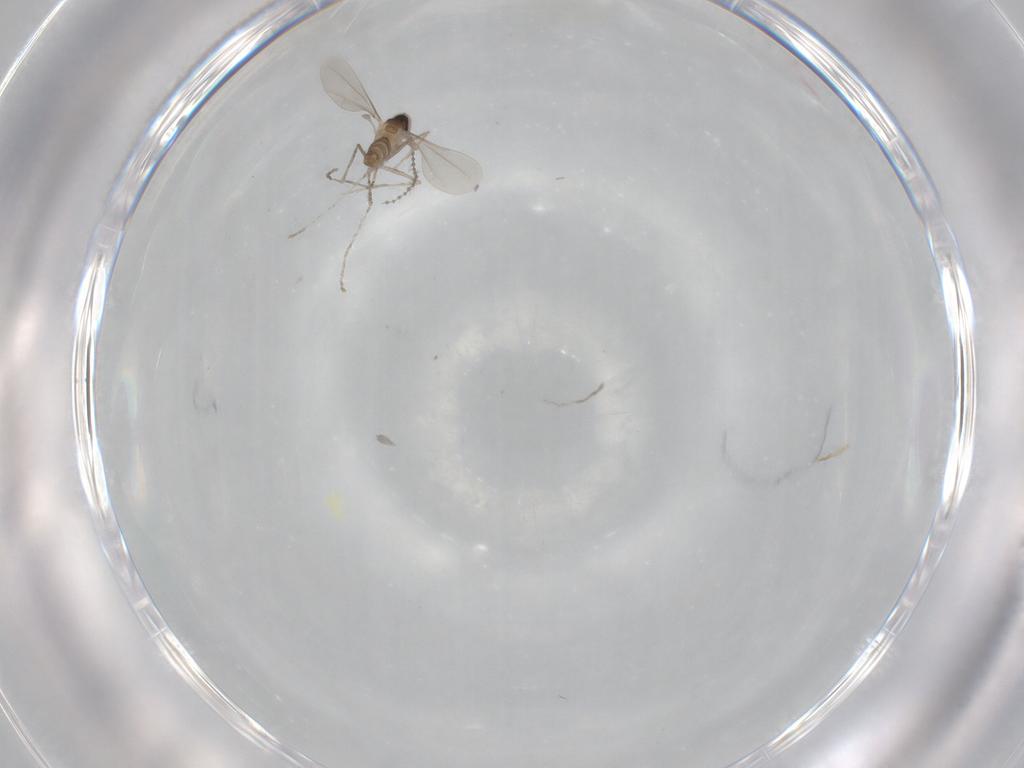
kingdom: Animalia
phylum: Arthropoda
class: Insecta
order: Diptera
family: Cecidomyiidae
